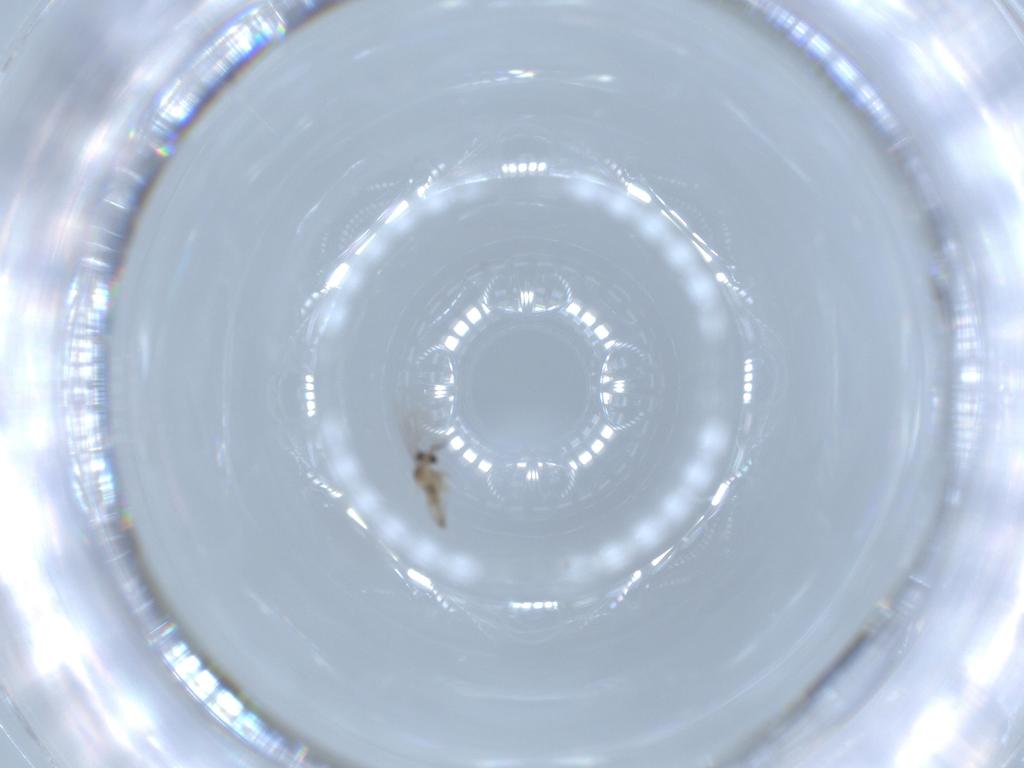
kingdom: Animalia
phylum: Arthropoda
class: Insecta
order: Diptera
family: Cecidomyiidae
